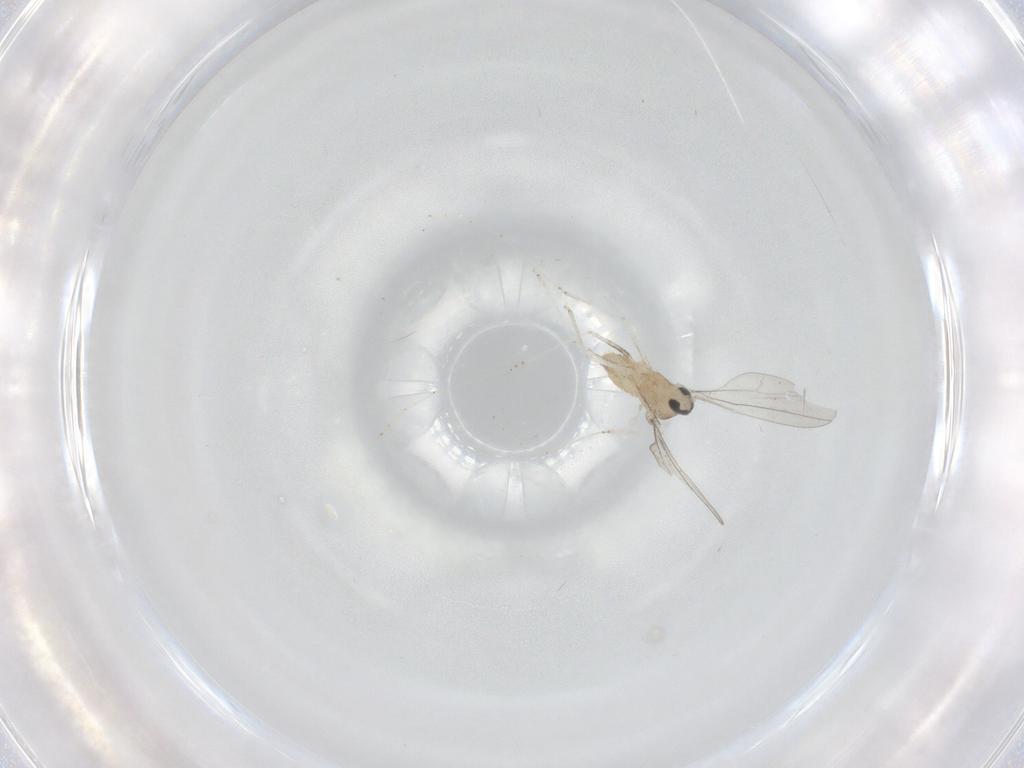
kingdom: Animalia
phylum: Arthropoda
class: Insecta
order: Diptera
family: Cecidomyiidae
